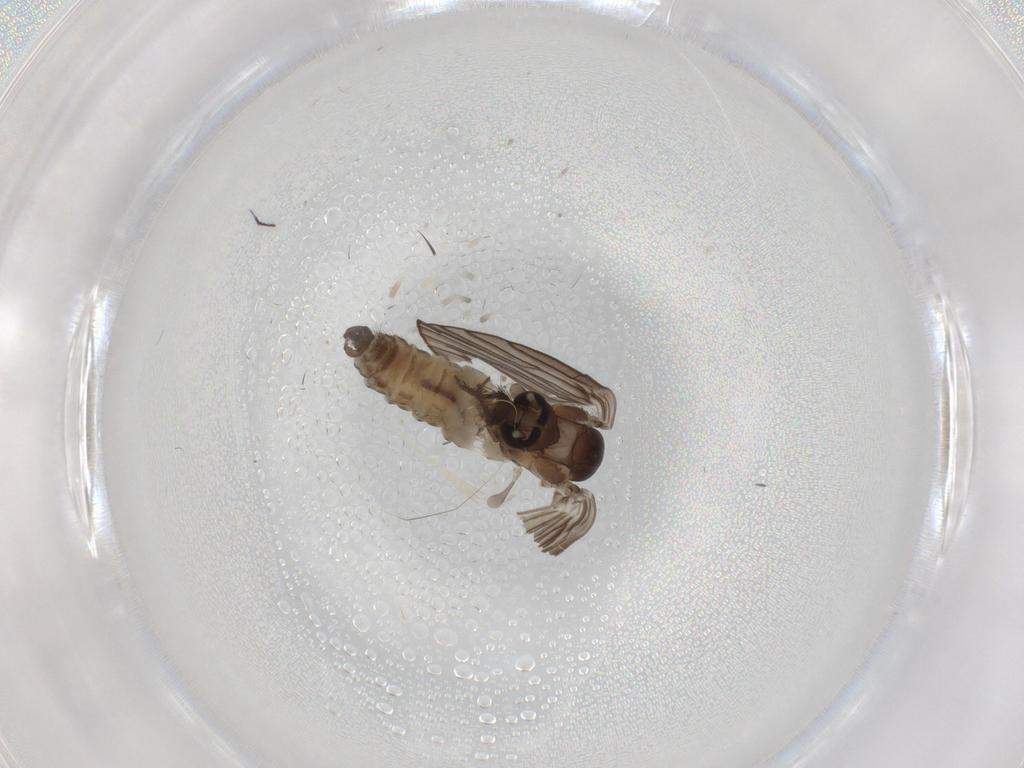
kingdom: Animalia
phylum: Arthropoda
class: Insecta
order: Diptera
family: Psychodidae
